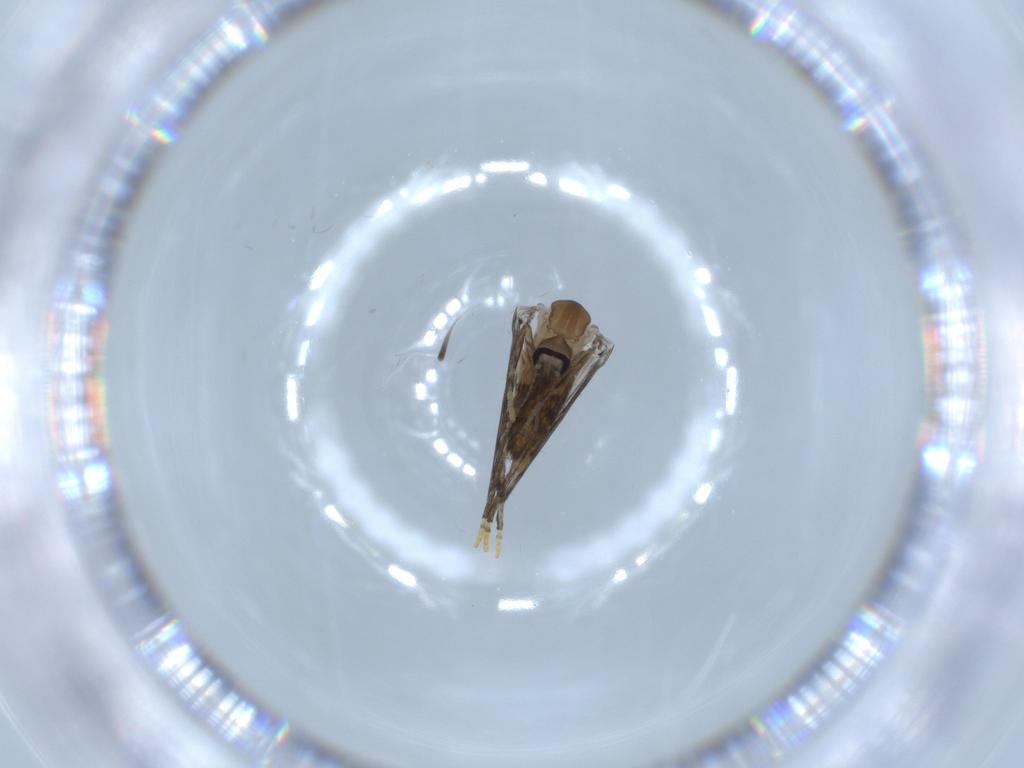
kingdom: Animalia
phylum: Arthropoda
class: Insecta
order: Diptera
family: Psychodidae
